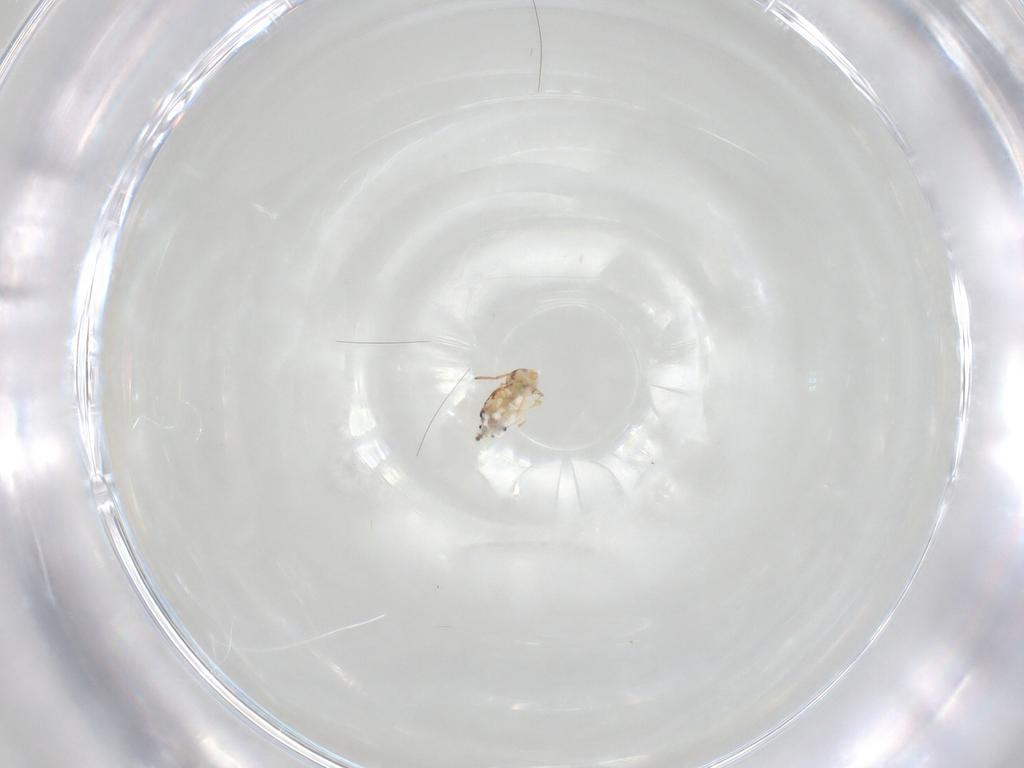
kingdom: Animalia
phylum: Arthropoda
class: Collembola
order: Symphypleona
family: Bourletiellidae
